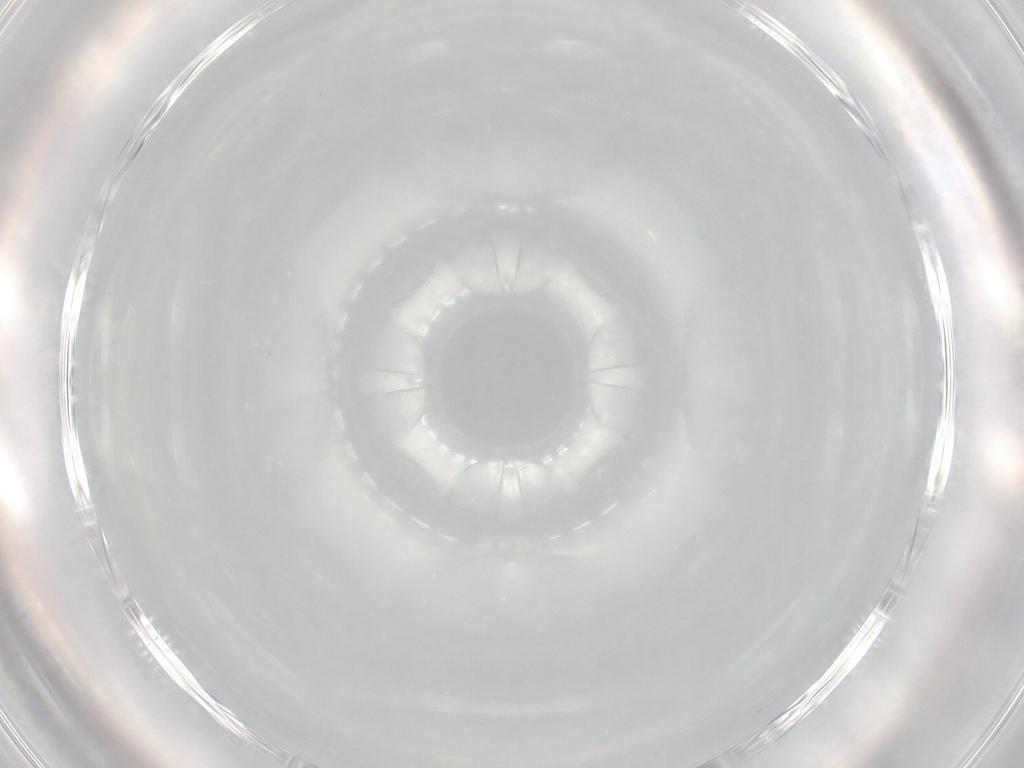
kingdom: Animalia
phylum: Arthropoda
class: Insecta
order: Diptera
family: Cecidomyiidae
